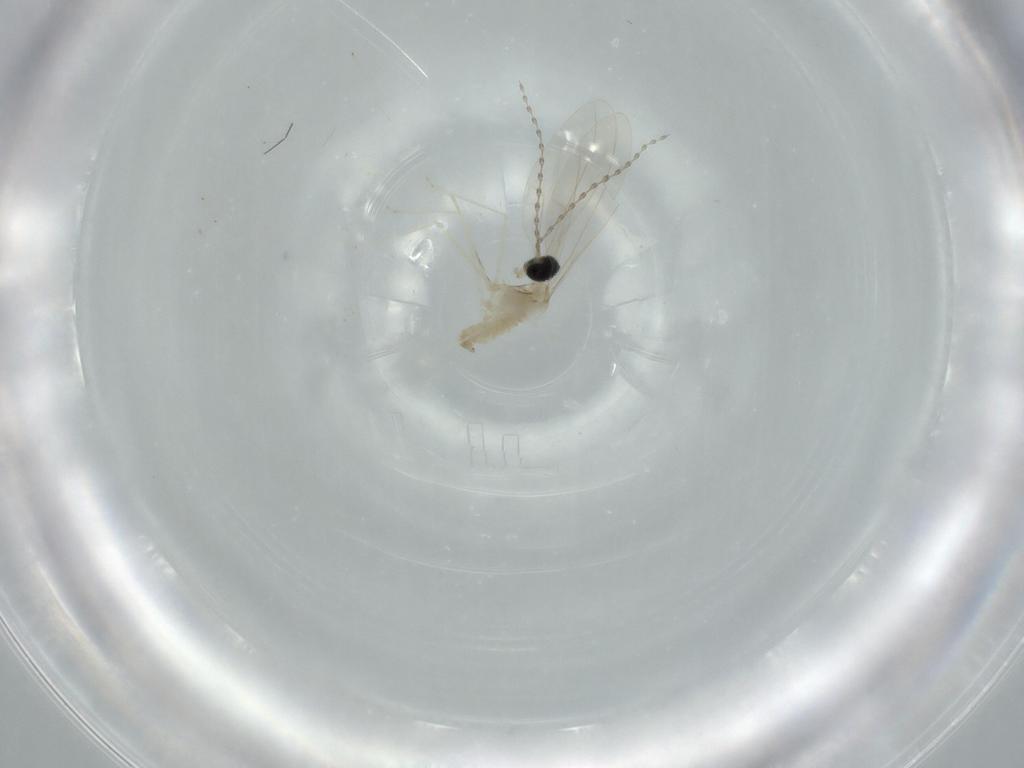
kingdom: Animalia
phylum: Arthropoda
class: Insecta
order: Diptera
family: Cecidomyiidae
